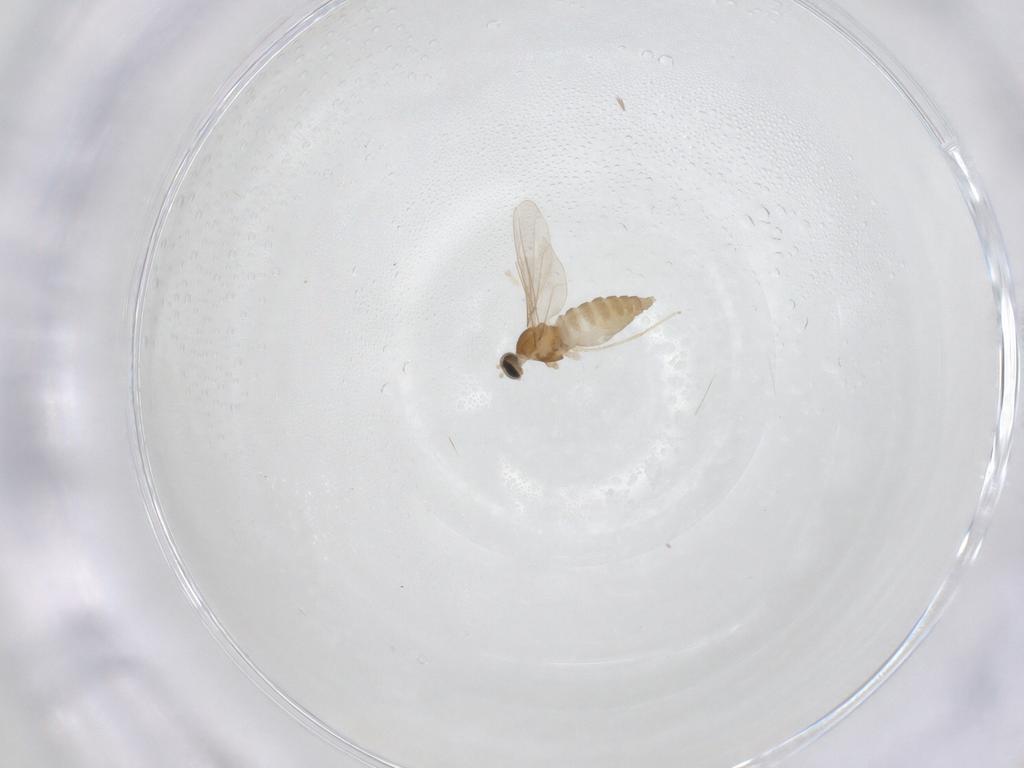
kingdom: Animalia
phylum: Arthropoda
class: Insecta
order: Diptera
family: Cecidomyiidae
